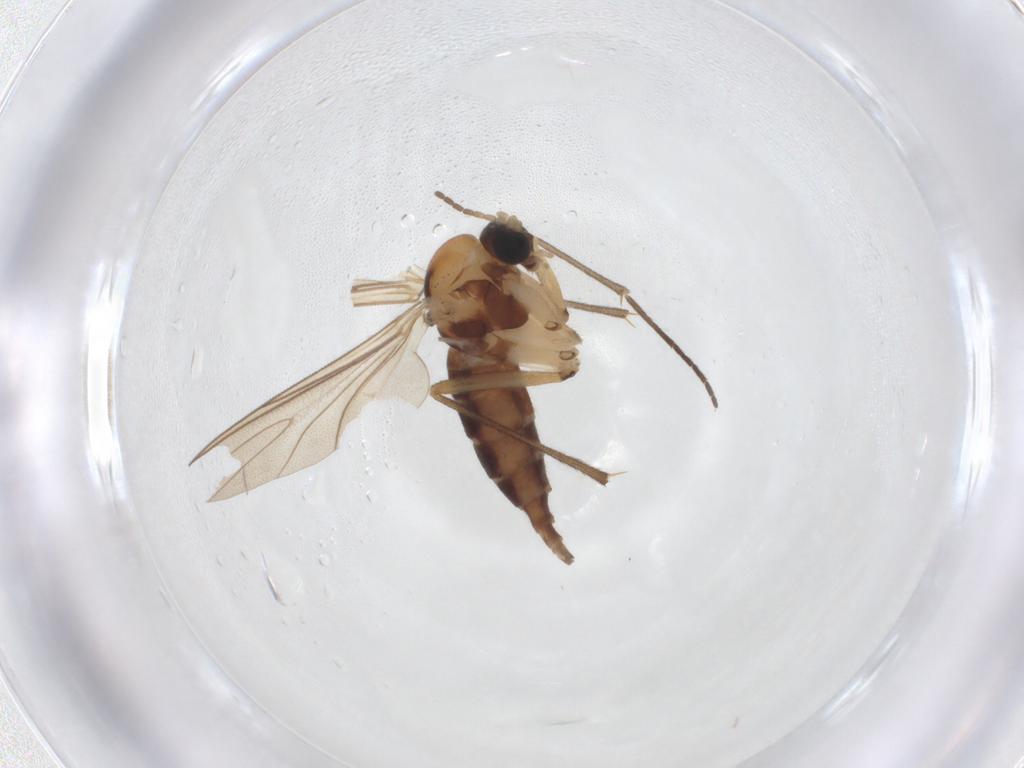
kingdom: Animalia
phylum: Arthropoda
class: Insecta
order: Diptera
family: Sciaridae
